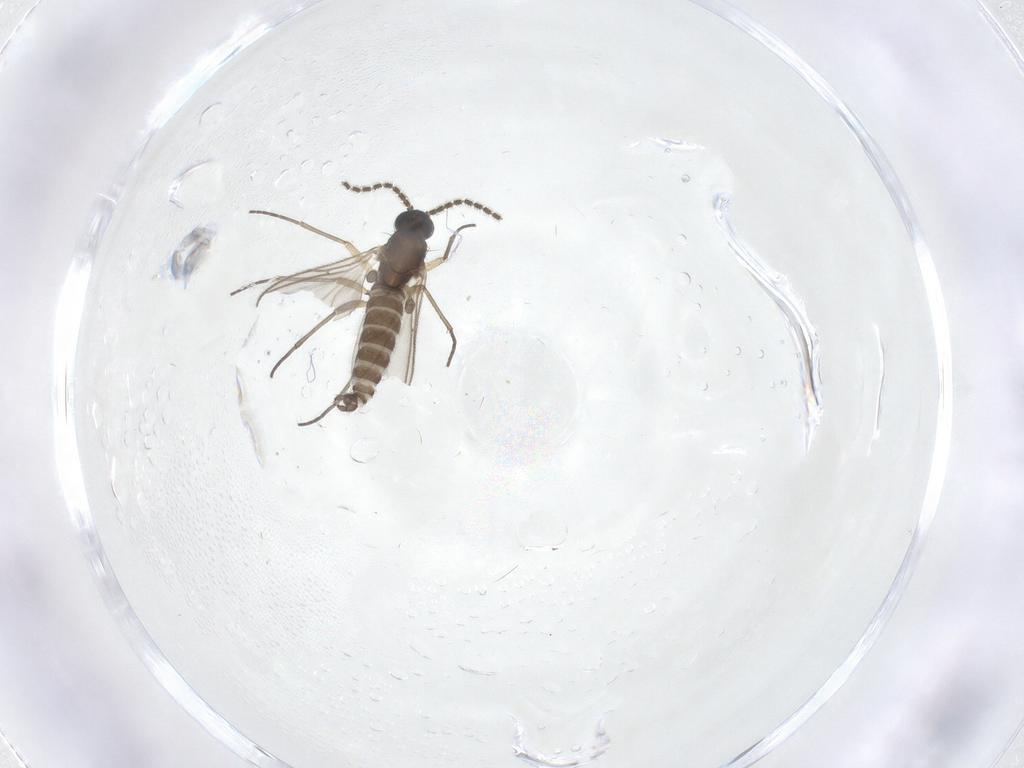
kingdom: Animalia
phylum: Arthropoda
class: Insecta
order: Diptera
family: Sciaridae
